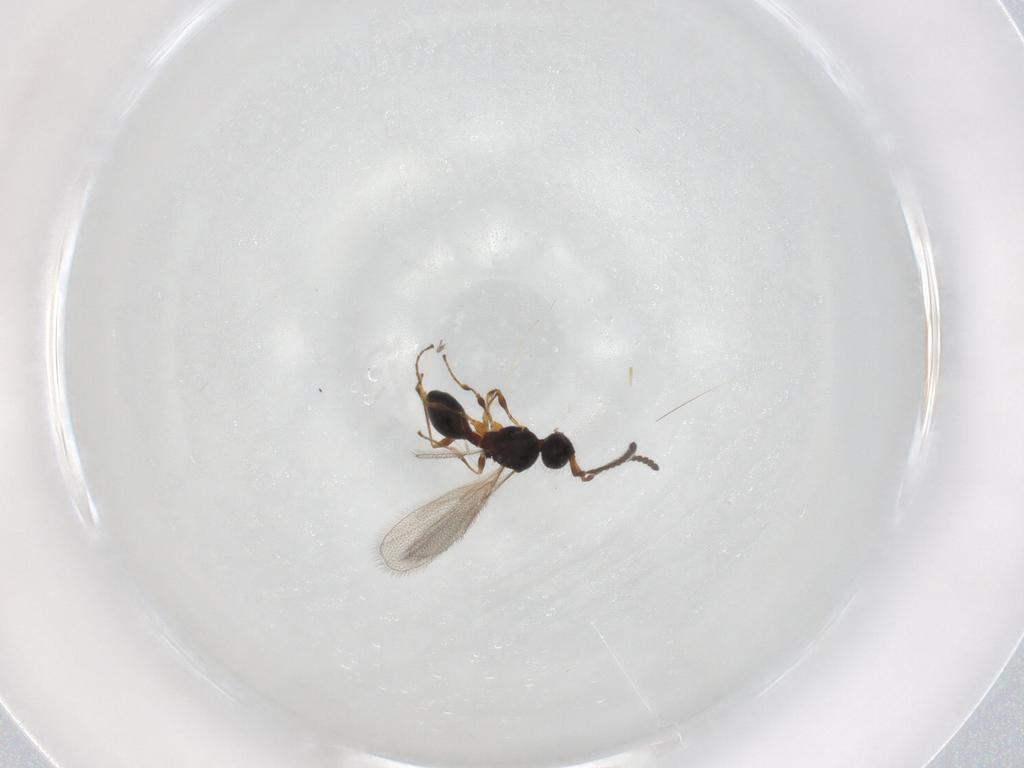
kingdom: Animalia
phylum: Arthropoda
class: Insecta
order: Hymenoptera
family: Diapriidae
